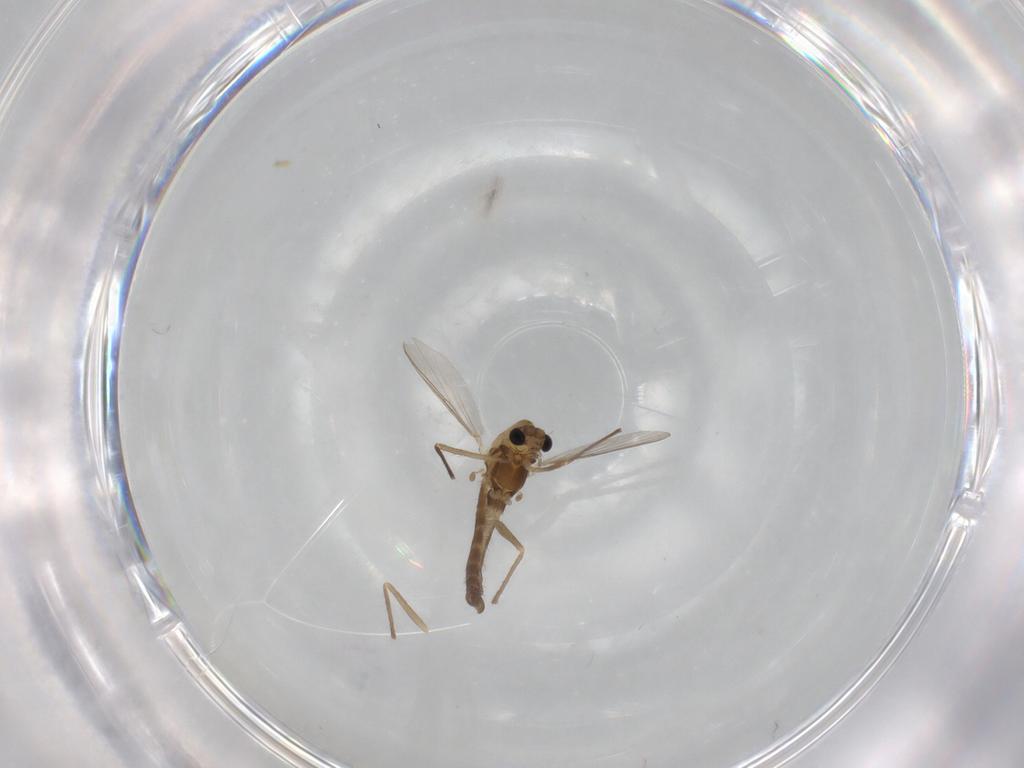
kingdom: Animalia
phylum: Arthropoda
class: Insecta
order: Diptera
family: Chironomidae
